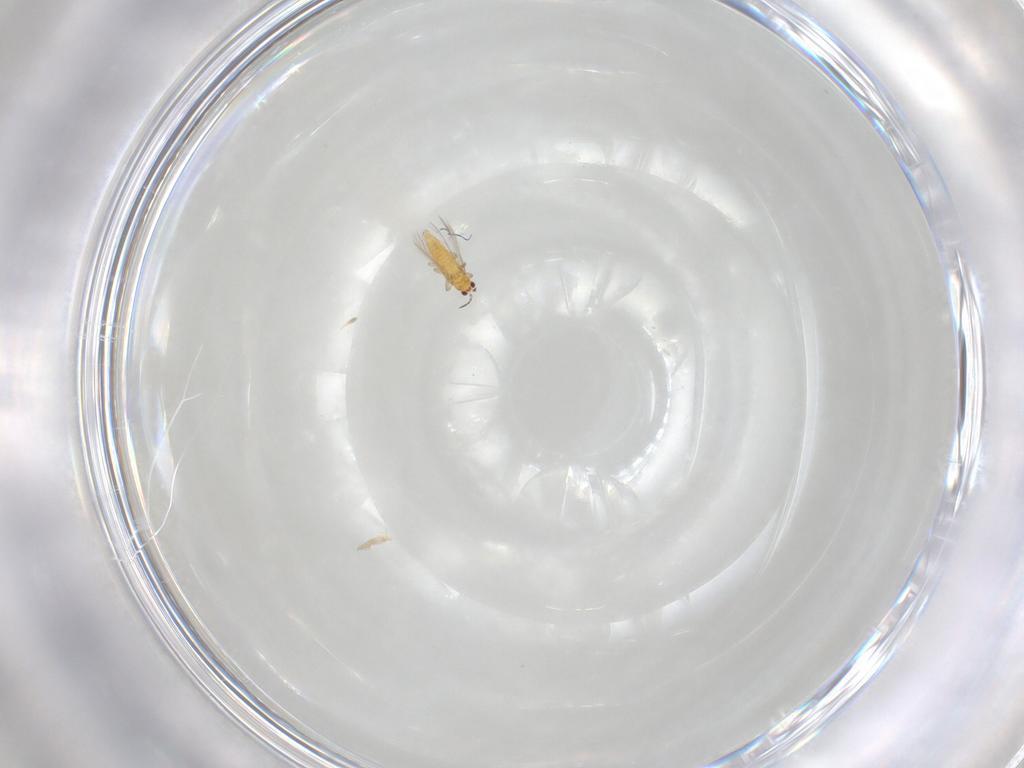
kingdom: Animalia
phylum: Arthropoda
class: Insecta
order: Thysanoptera
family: Thripidae
